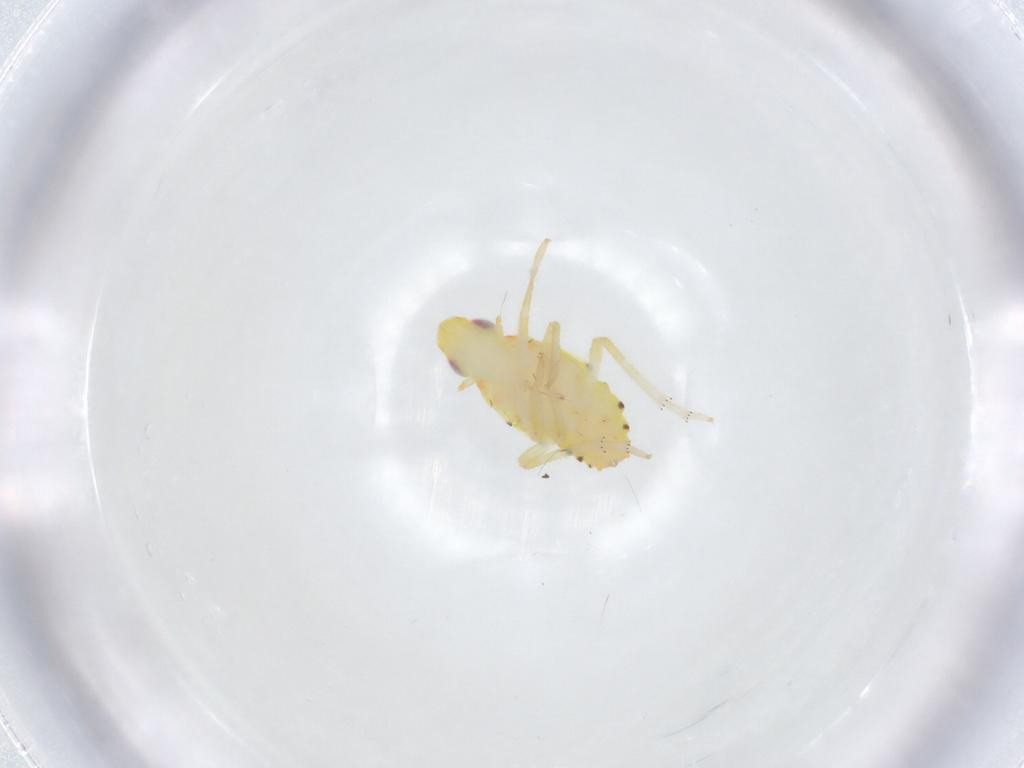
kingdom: Animalia
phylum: Arthropoda
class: Insecta
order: Hemiptera
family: Tropiduchidae
